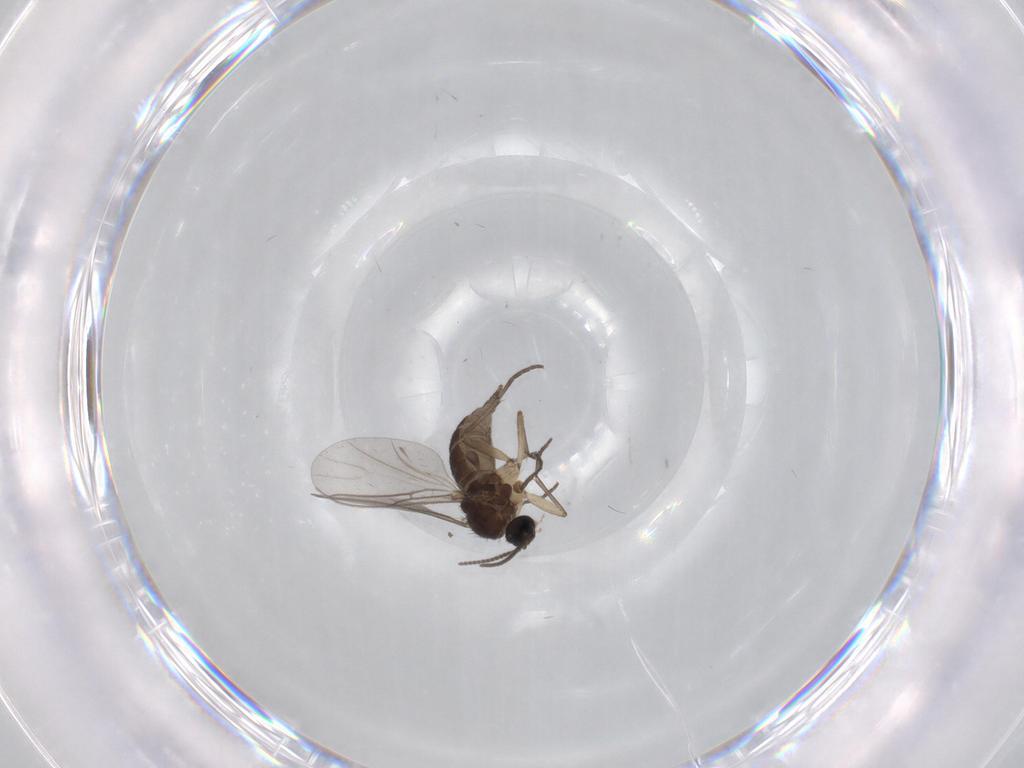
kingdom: Animalia
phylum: Arthropoda
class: Insecta
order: Diptera
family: Sciaridae
